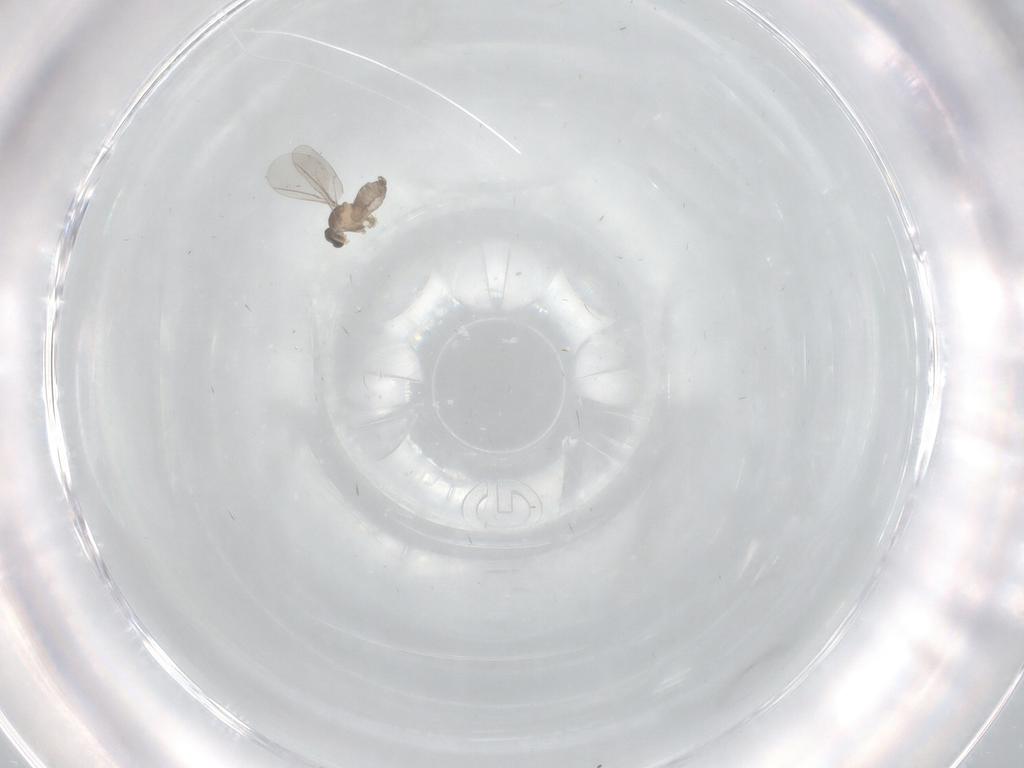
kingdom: Animalia
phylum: Arthropoda
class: Insecta
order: Diptera
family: Cecidomyiidae
